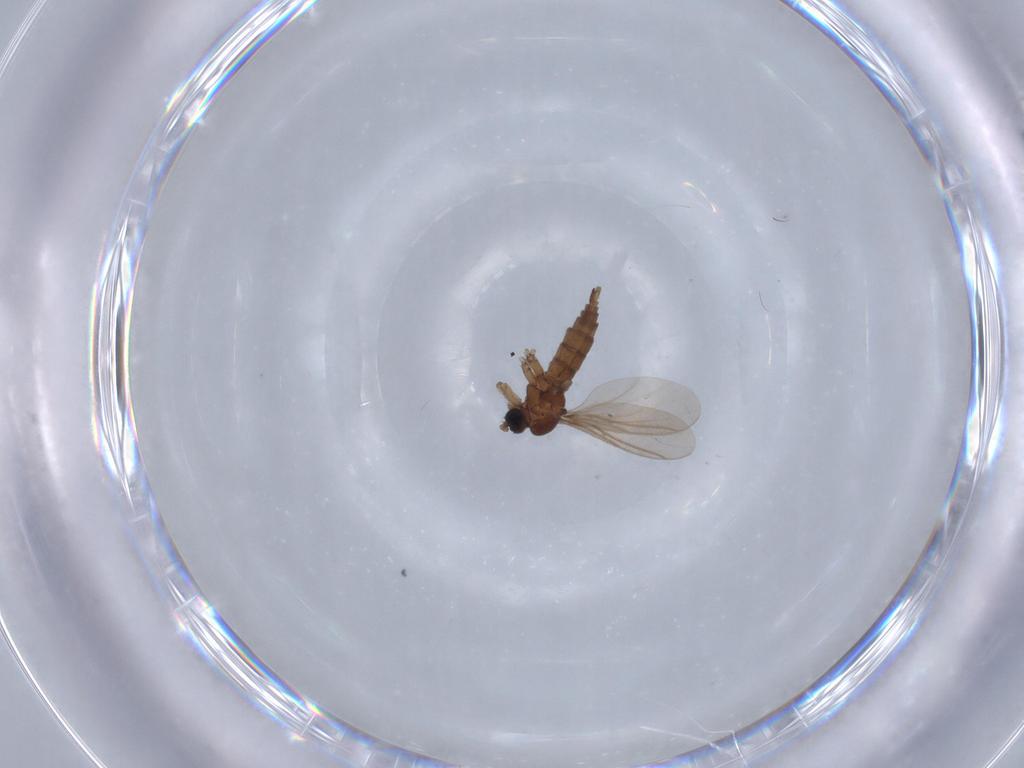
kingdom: Animalia
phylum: Arthropoda
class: Insecta
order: Diptera
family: Sciaridae
